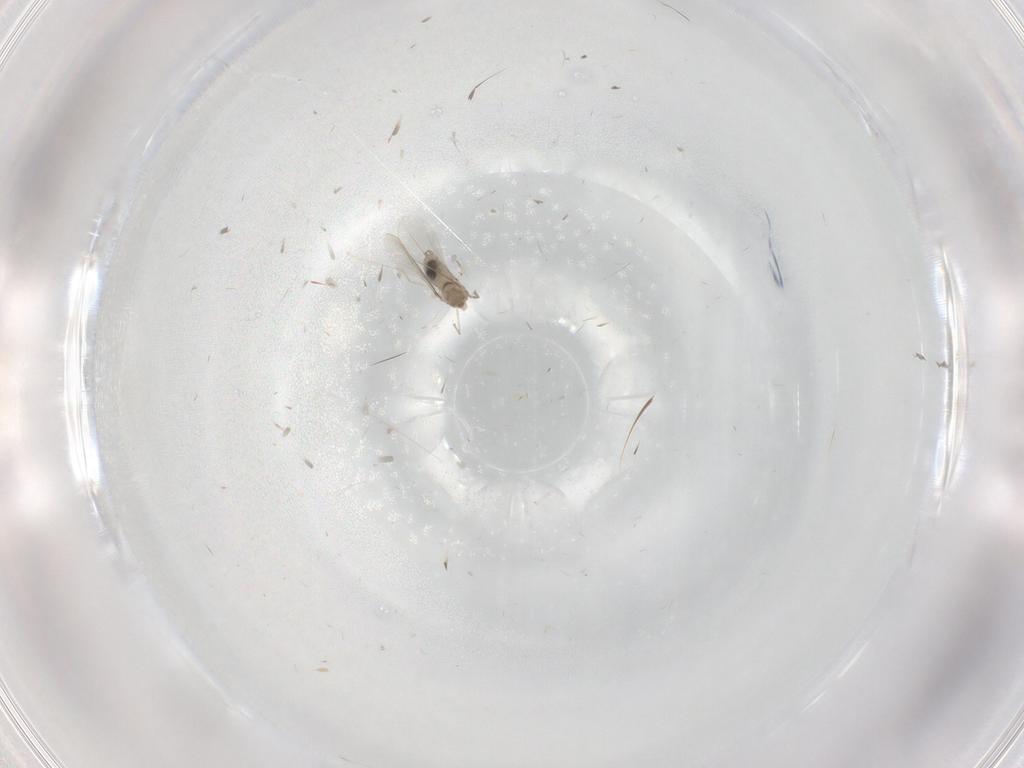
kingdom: Animalia
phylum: Arthropoda
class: Insecta
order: Diptera
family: Cecidomyiidae
